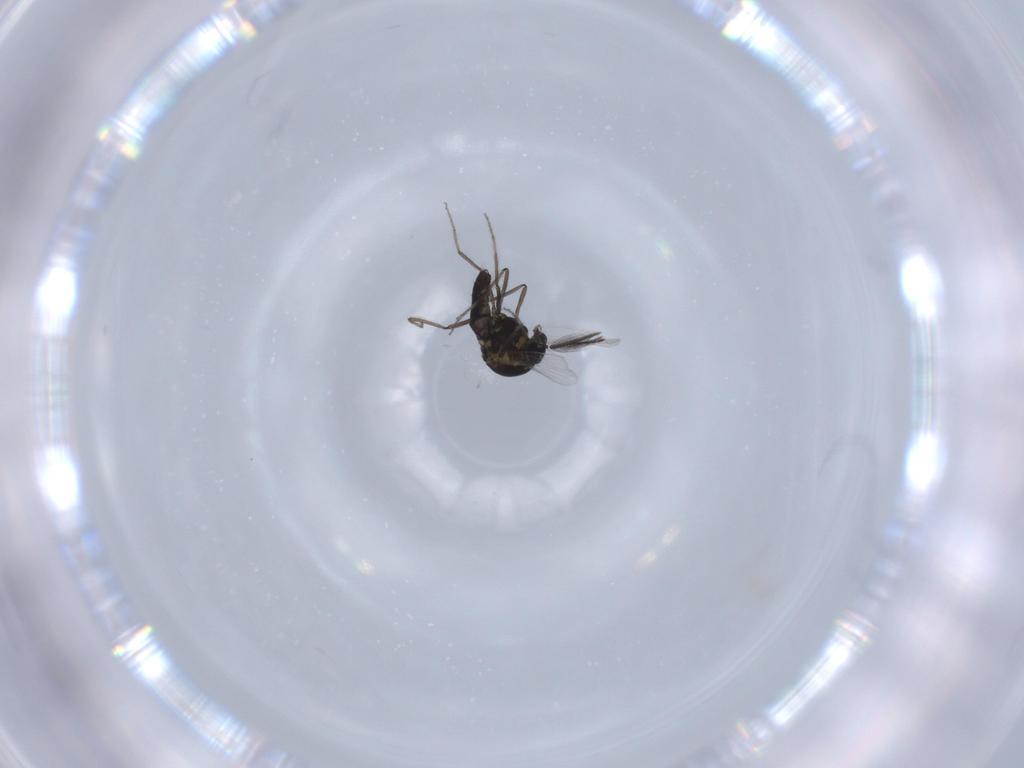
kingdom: Animalia
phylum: Arthropoda
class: Insecta
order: Diptera
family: Ceratopogonidae
